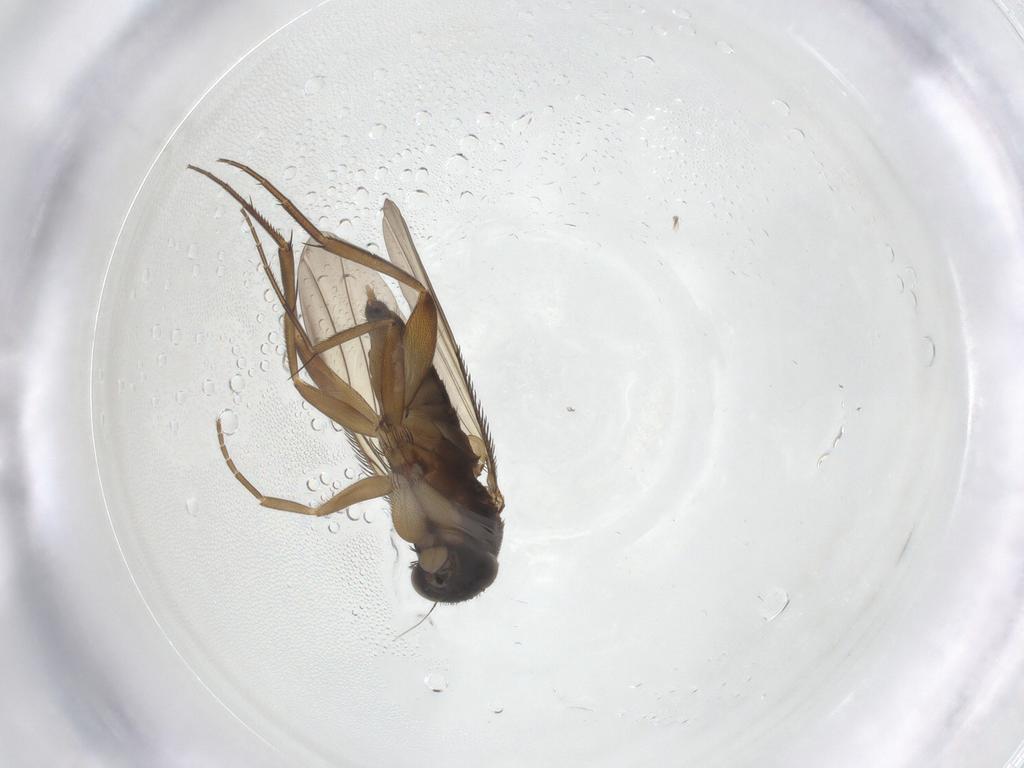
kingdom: Animalia
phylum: Arthropoda
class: Insecta
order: Diptera
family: Phoridae
